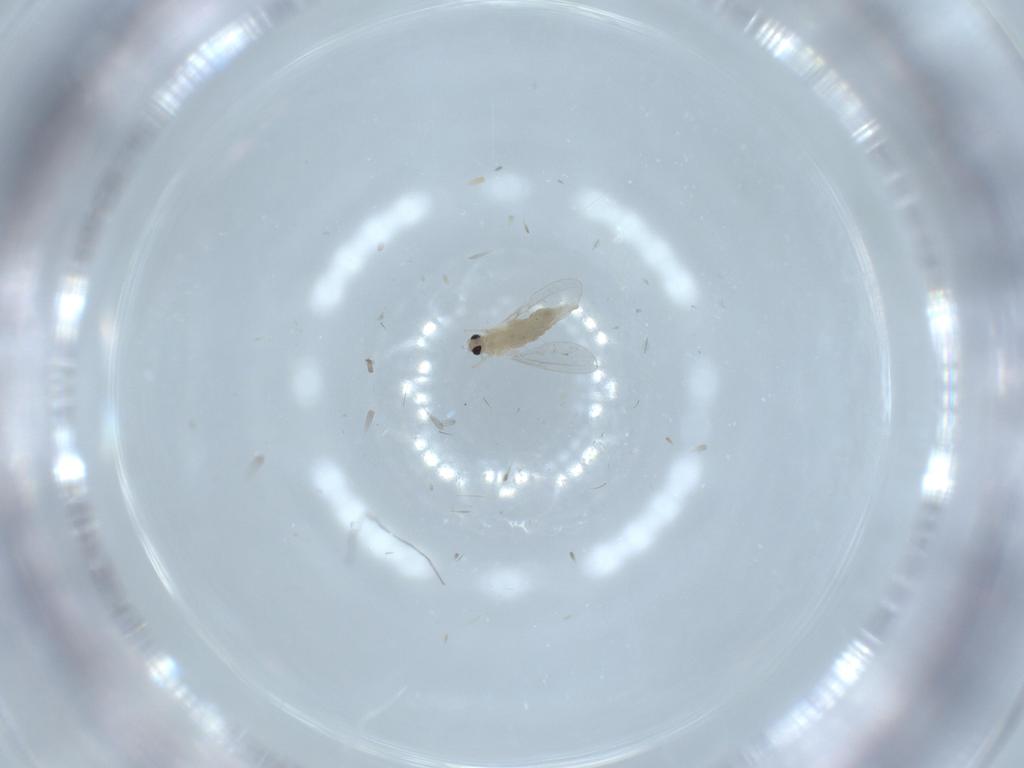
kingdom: Animalia
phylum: Arthropoda
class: Insecta
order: Diptera
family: Cecidomyiidae
